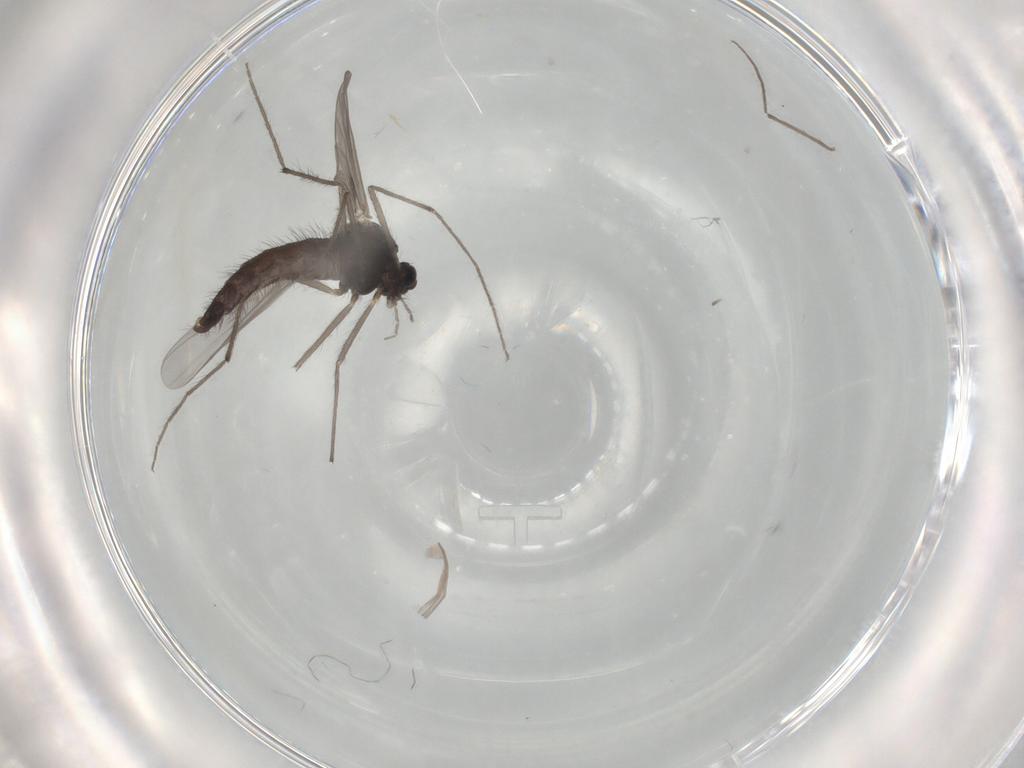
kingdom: Animalia
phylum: Arthropoda
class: Insecta
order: Diptera
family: Chironomidae
